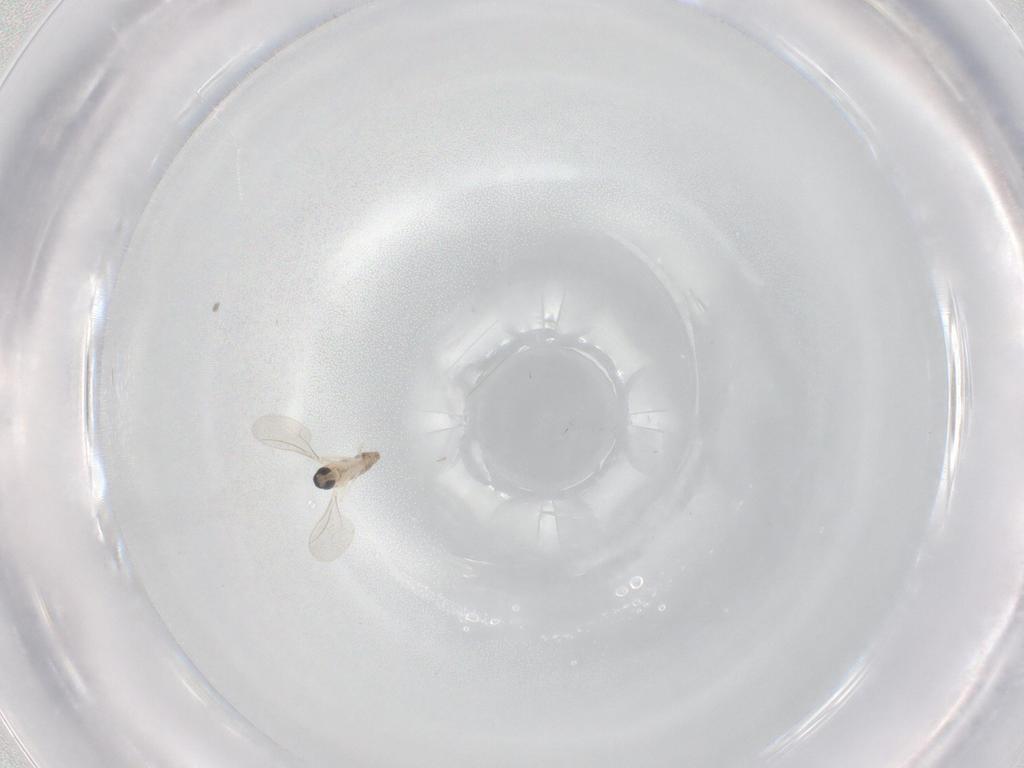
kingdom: Animalia
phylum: Arthropoda
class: Insecta
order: Diptera
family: Cecidomyiidae
